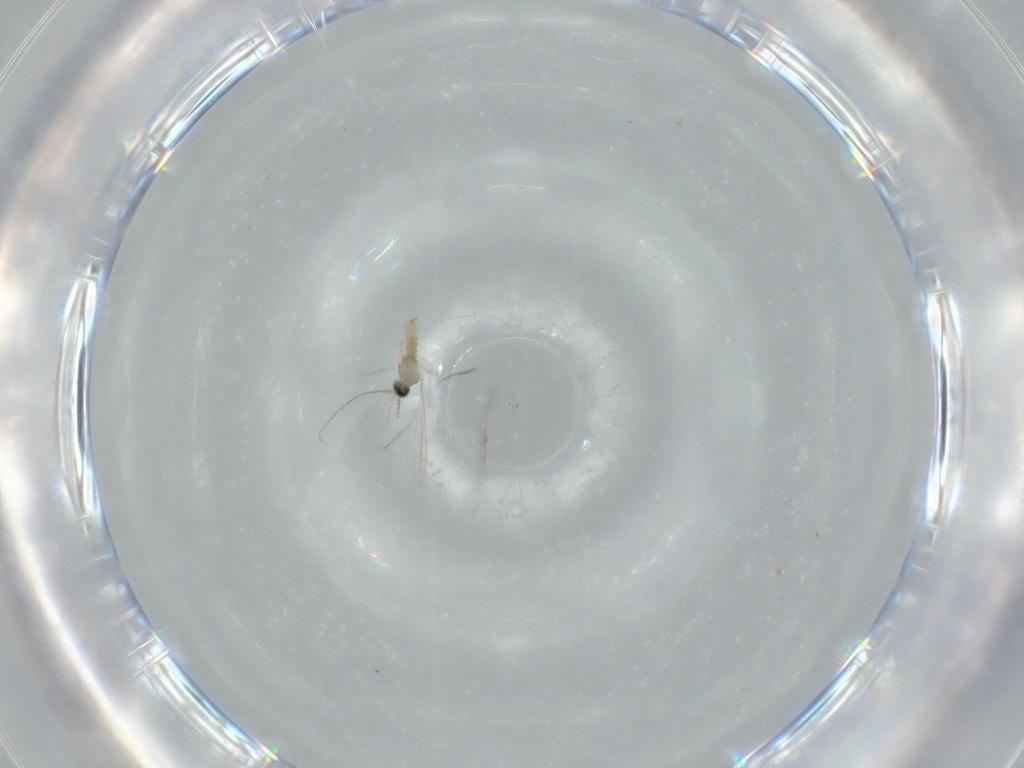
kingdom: Animalia
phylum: Arthropoda
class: Insecta
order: Diptera
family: Cecidomyiidae
